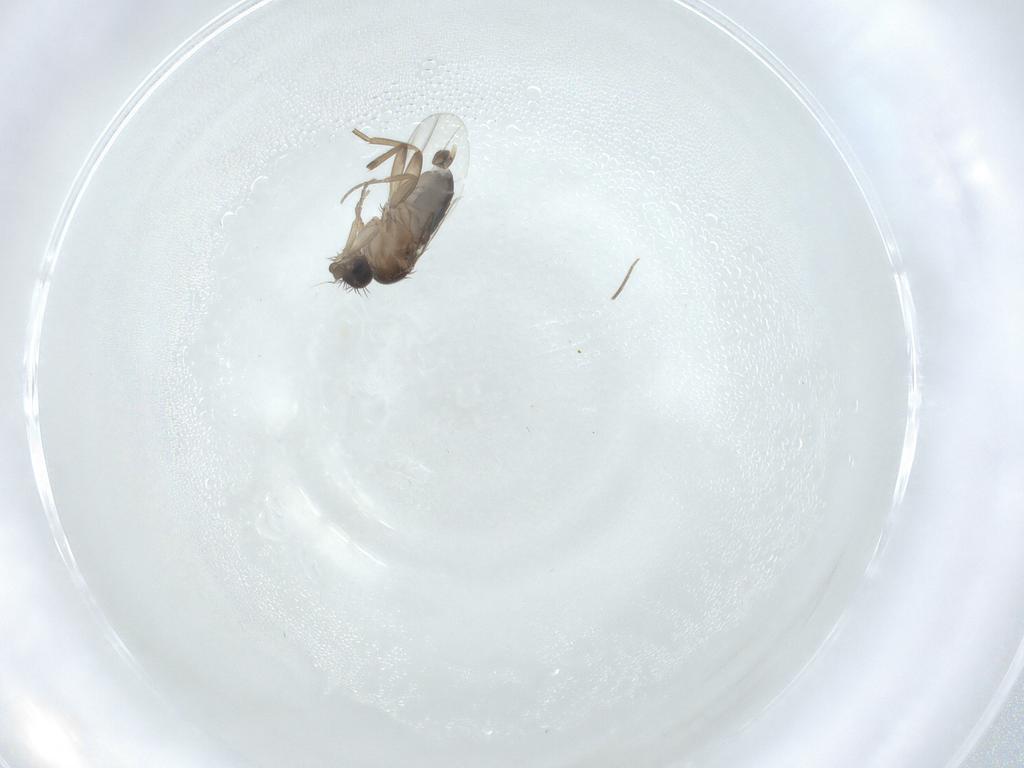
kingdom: Animalia
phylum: Arthropoda
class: Insecta
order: Diptera
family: Phoridae
